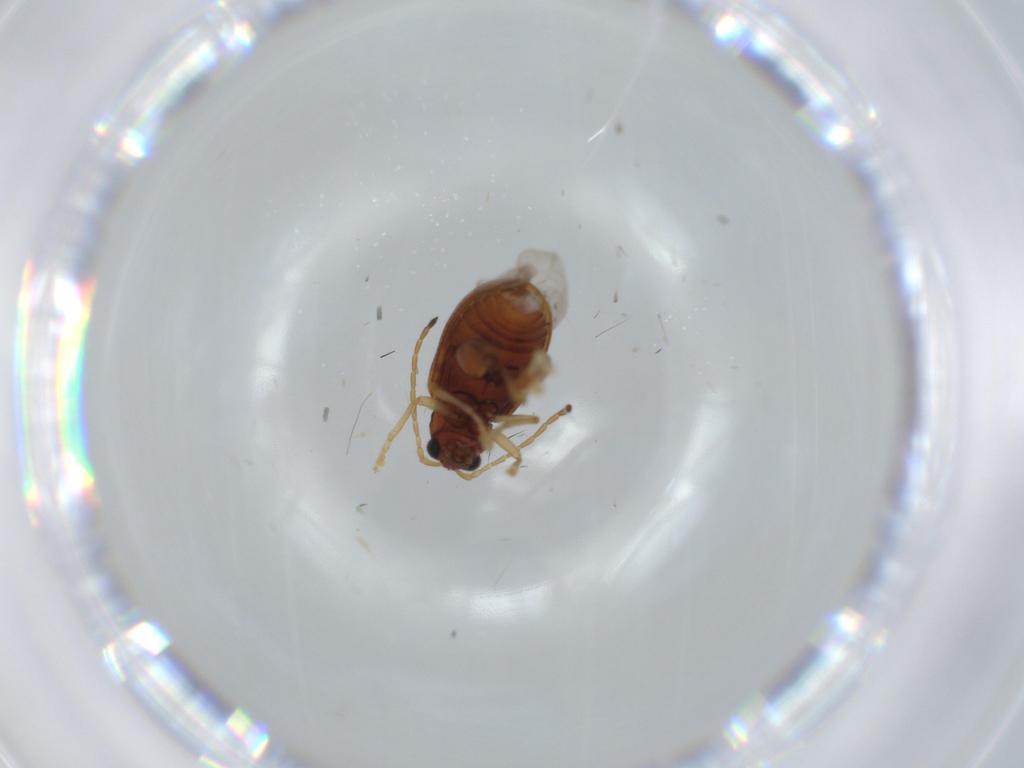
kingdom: Animalia
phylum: Arthropoda
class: Insecta
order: Coleoptera
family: Chrysomelidae
